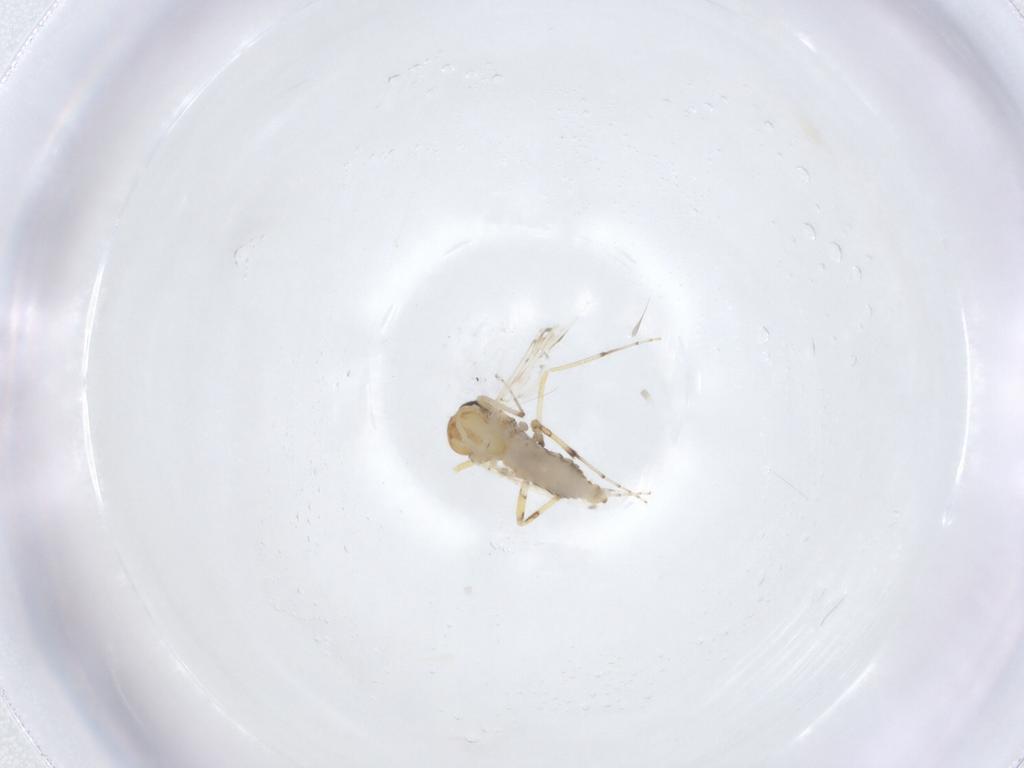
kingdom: Animalia
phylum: Arthropoda
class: Insecta
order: Diptera
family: Ceratopogonidae
